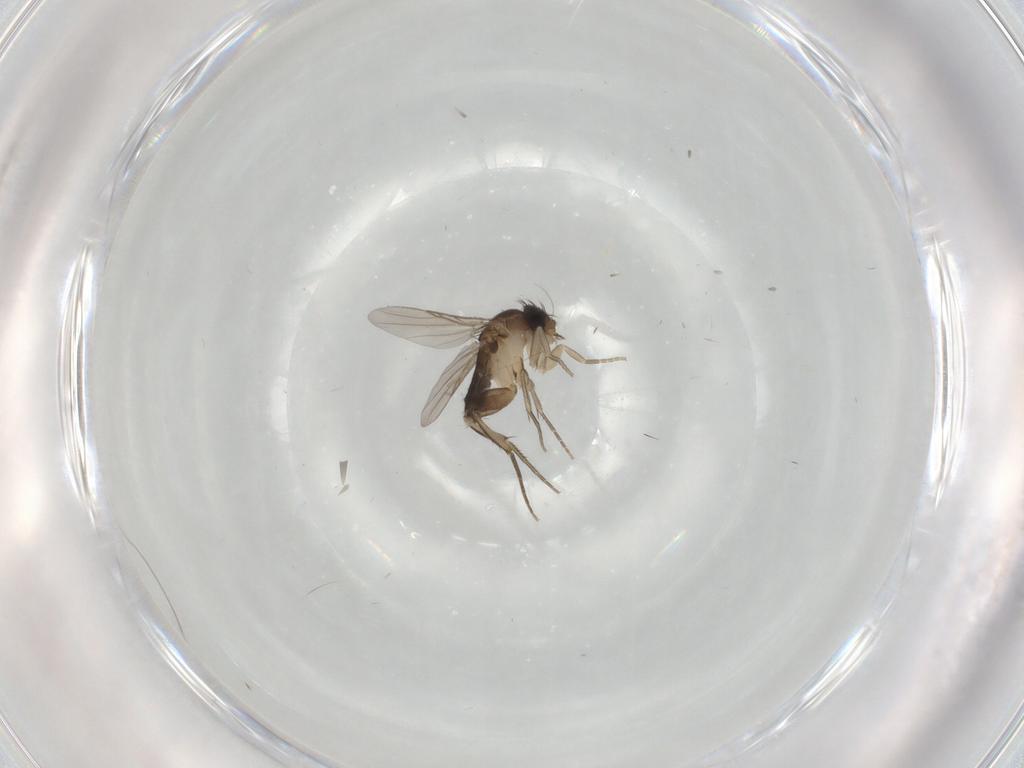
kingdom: Animalia
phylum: Arthropoda
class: Insecta
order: Diptera
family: Phoridae
